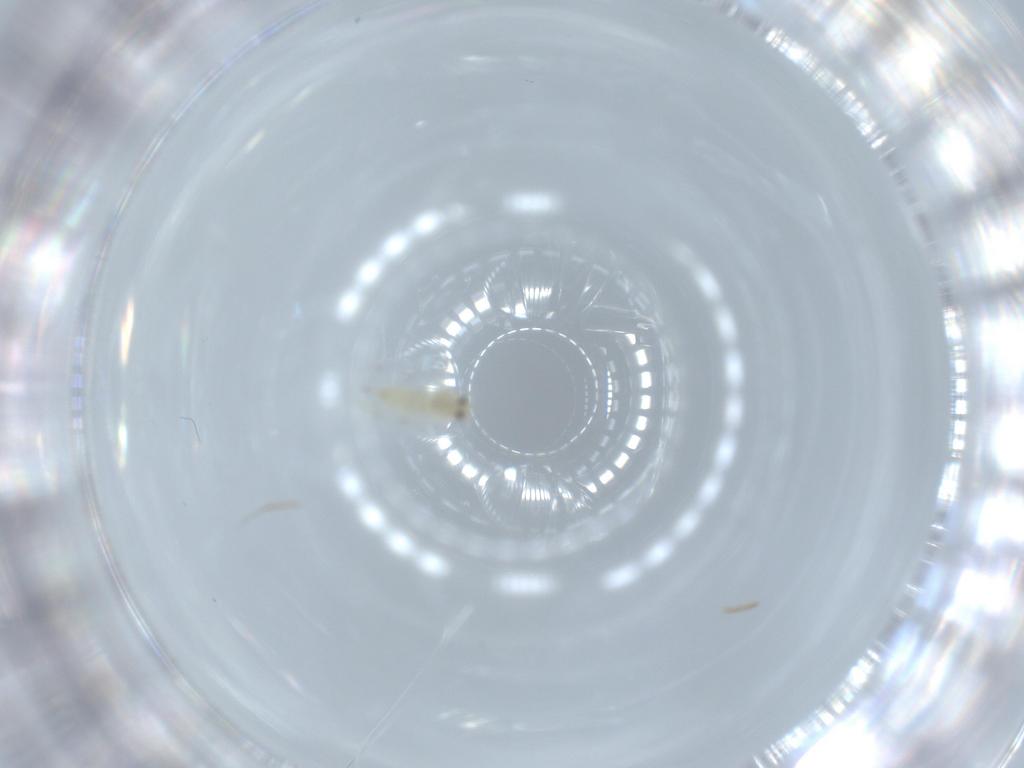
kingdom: Animalia
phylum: Arthropoda
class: Insecta
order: Hemiptera
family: Aleyrodidae
